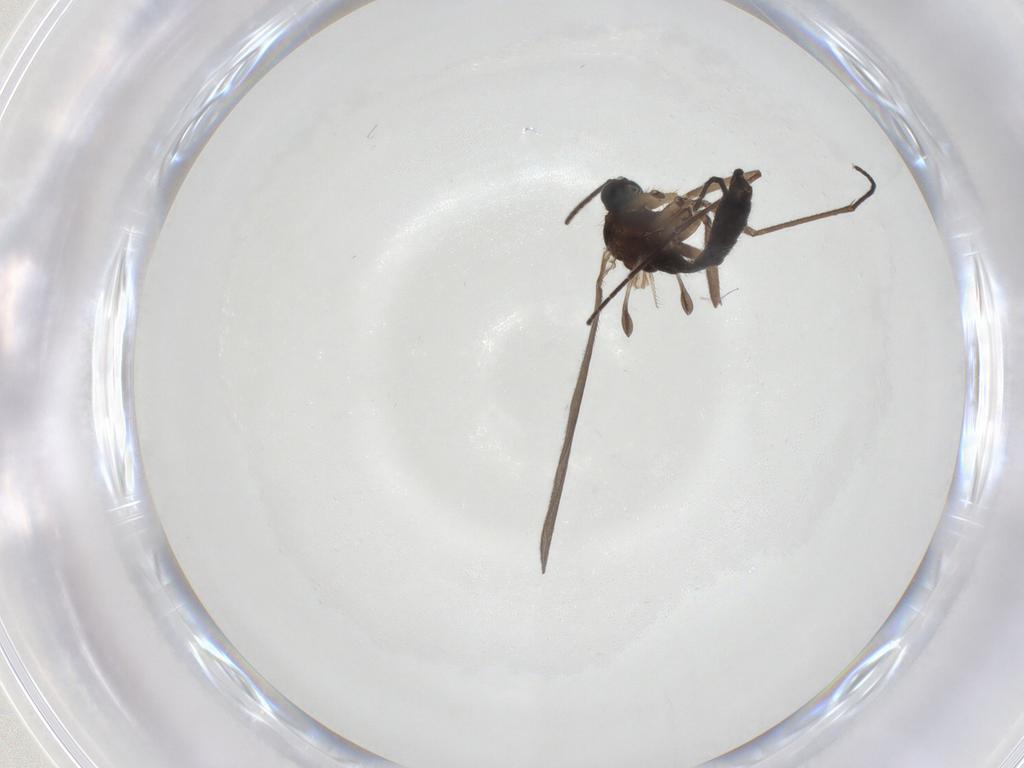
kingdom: Animalia
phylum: Arthropoda
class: Insecta
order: Diptera
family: Sciaridae
